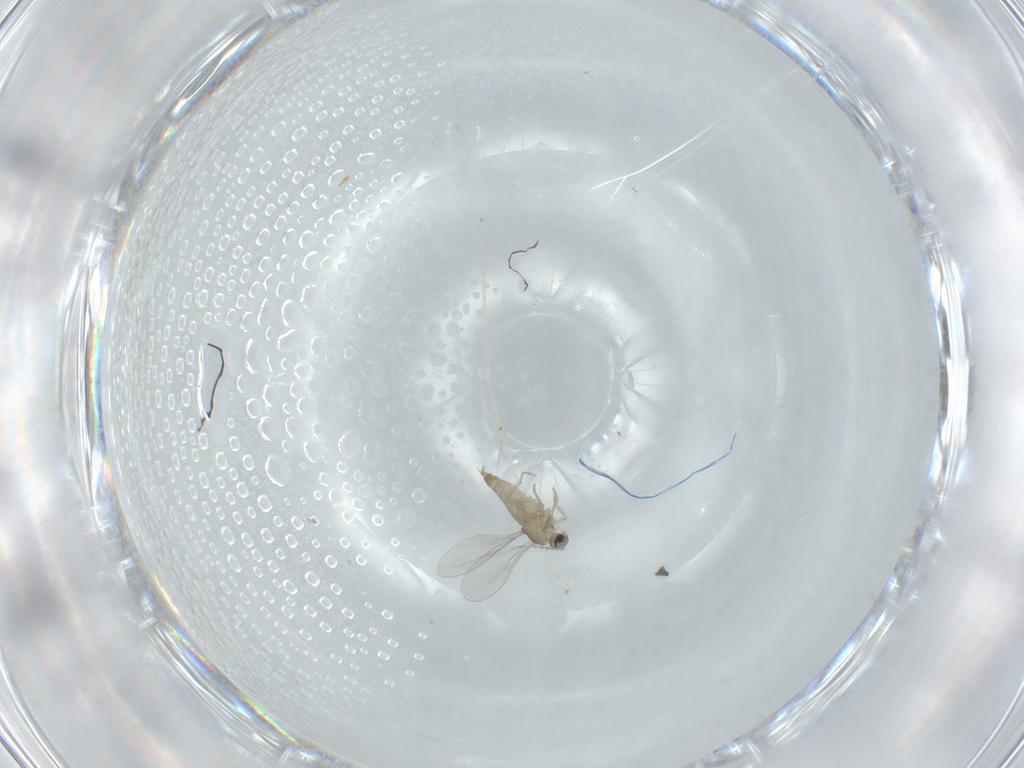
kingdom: Animalia
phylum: Arthropoda
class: Insecta
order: Diptera
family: Cecidomyiidae
